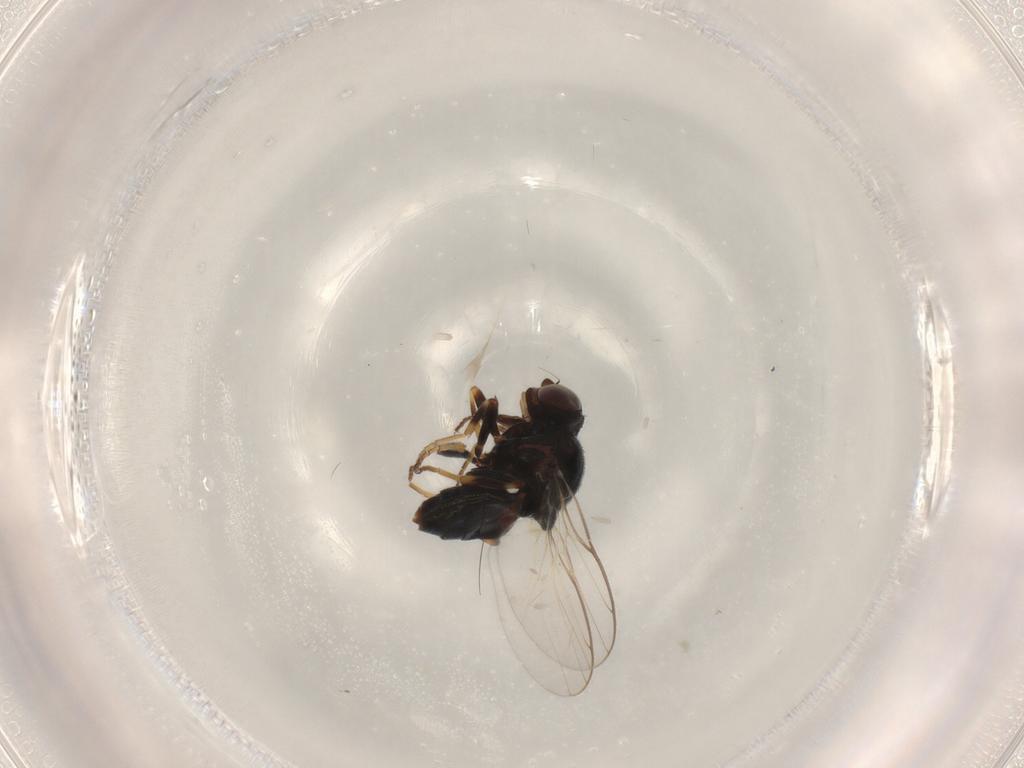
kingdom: Animalia
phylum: Arthropoda
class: Insecta
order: Diptera
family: Chloropidae
